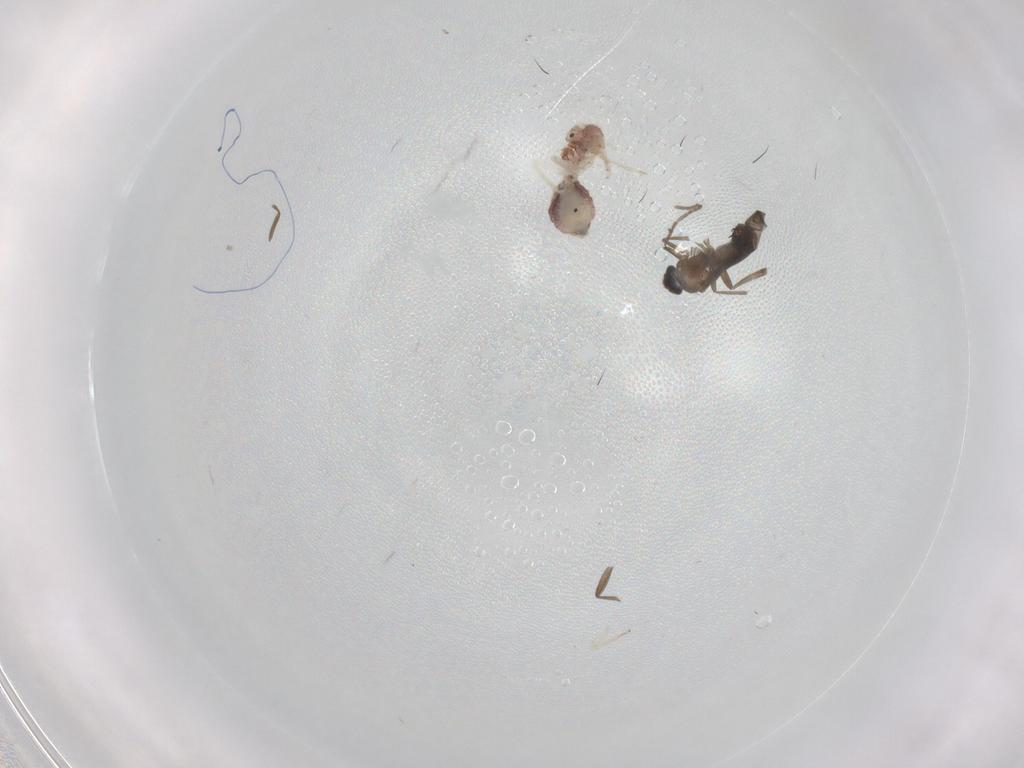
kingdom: Animalia
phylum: Arthropoda
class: Insecta
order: Psocodea
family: Cladiopsocidae
